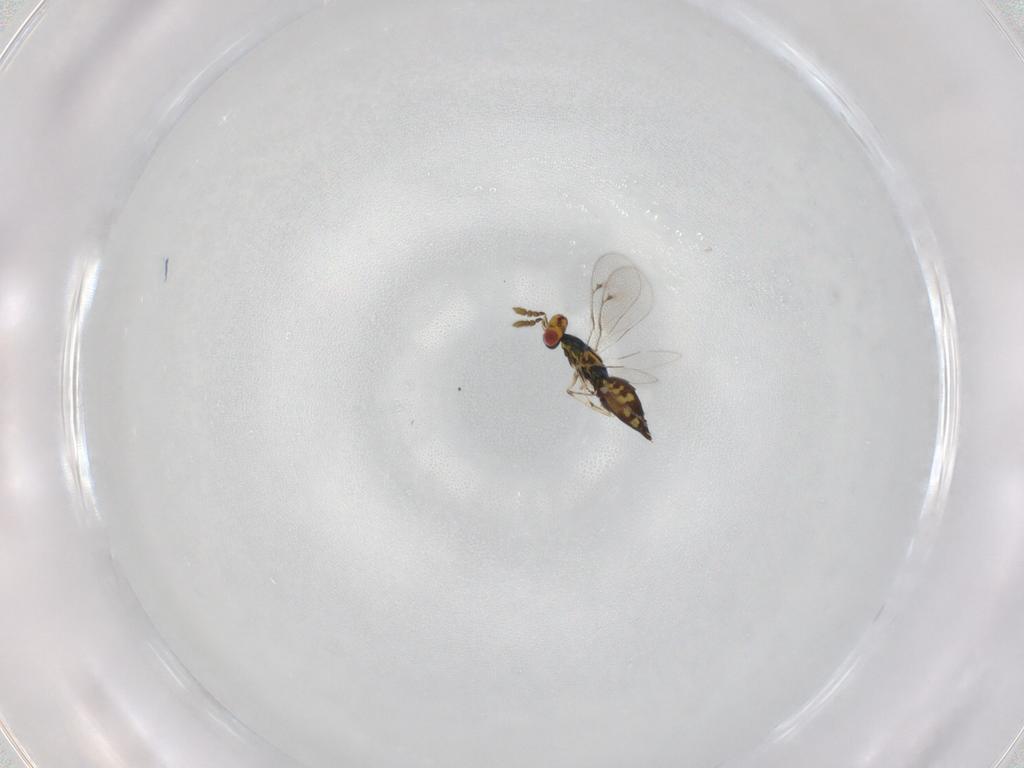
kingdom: Animalia
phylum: Arthropoda
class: Insecta
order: Hymenoptera
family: Eulophidae
